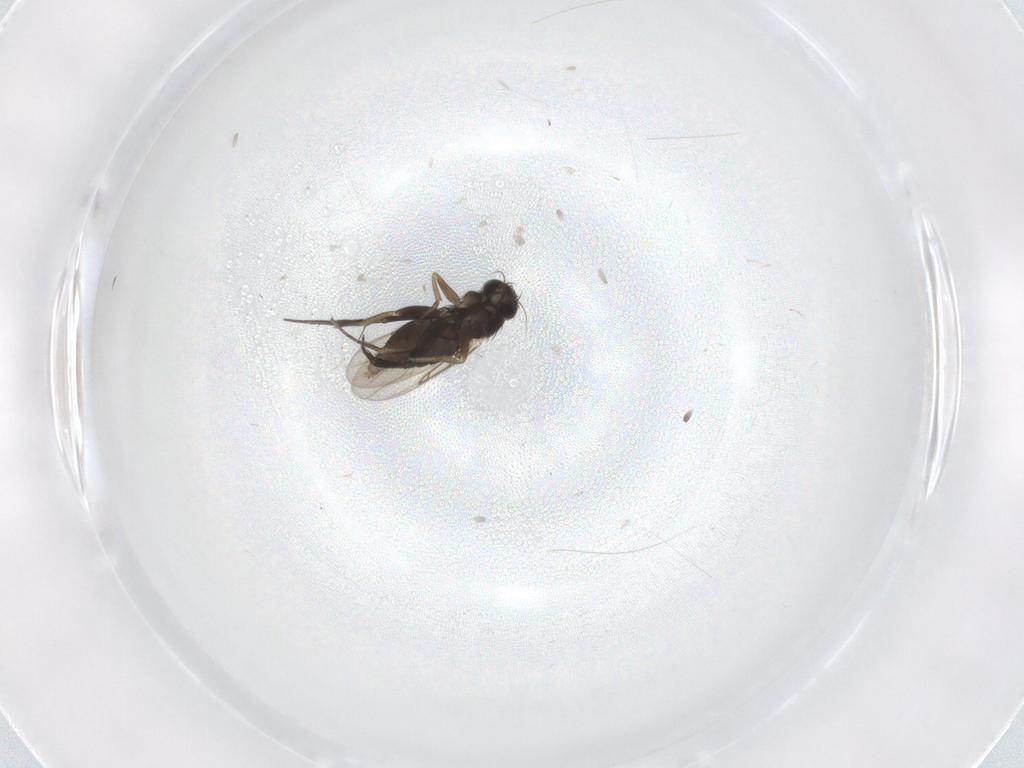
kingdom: Animalia
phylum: Arthropoda
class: Insecta
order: Diptera
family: Phoridae
